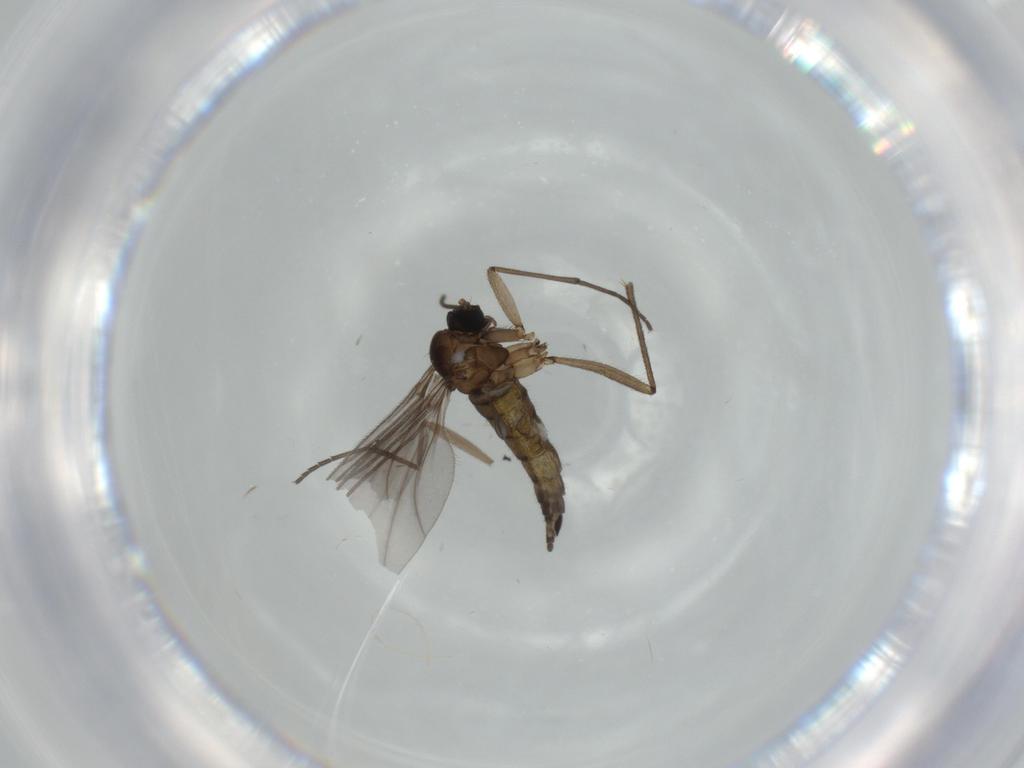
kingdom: Animalia
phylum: Arthropoda
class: Insecta
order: Diptera
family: Sciaridae
